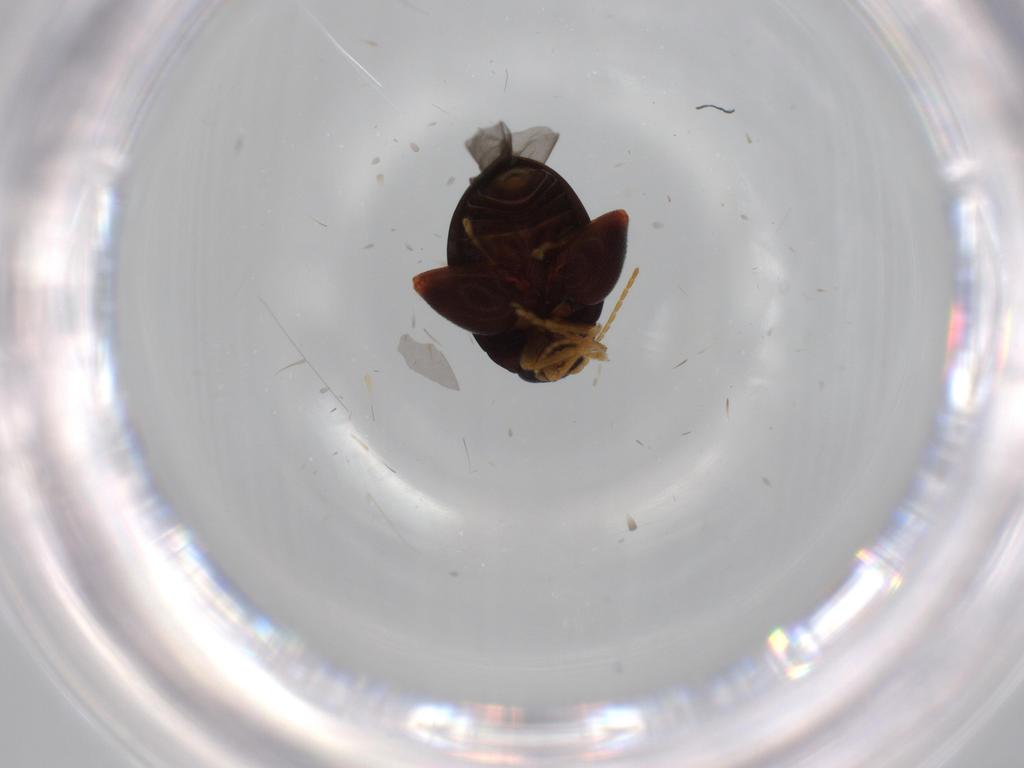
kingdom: Animalia
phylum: Arthropoda
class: Insecta
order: Coleoptera
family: Chrysomelidae
